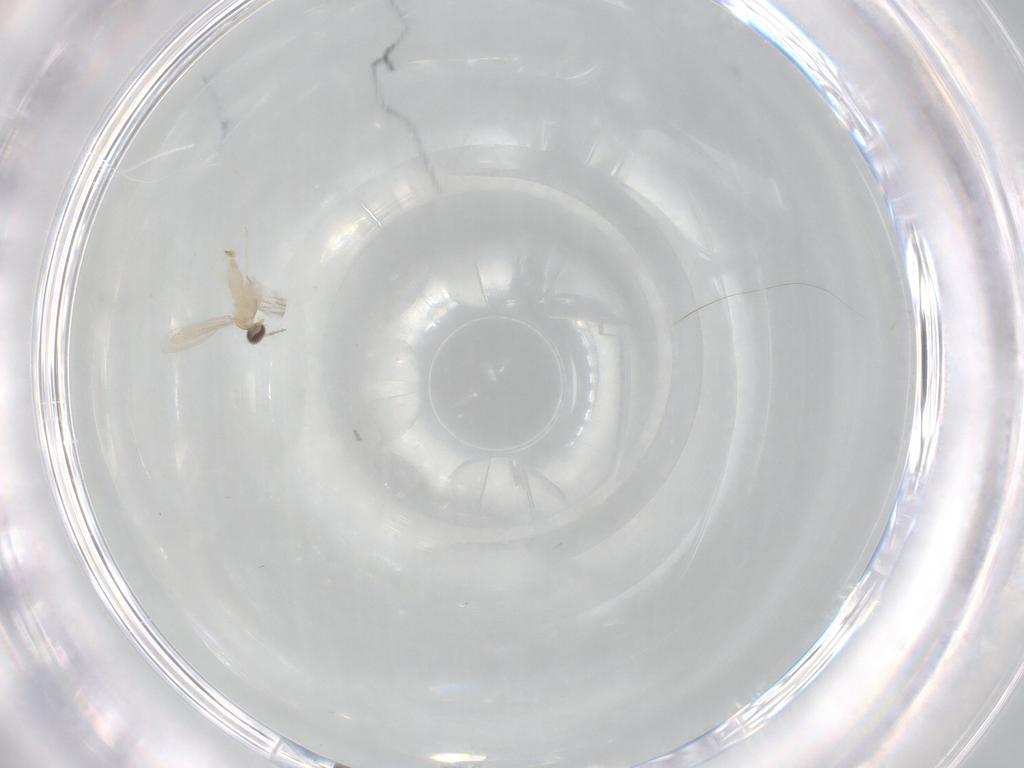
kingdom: Animalia
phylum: Arthropoda
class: Insecta
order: Diptera
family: Cecidomyiidae
